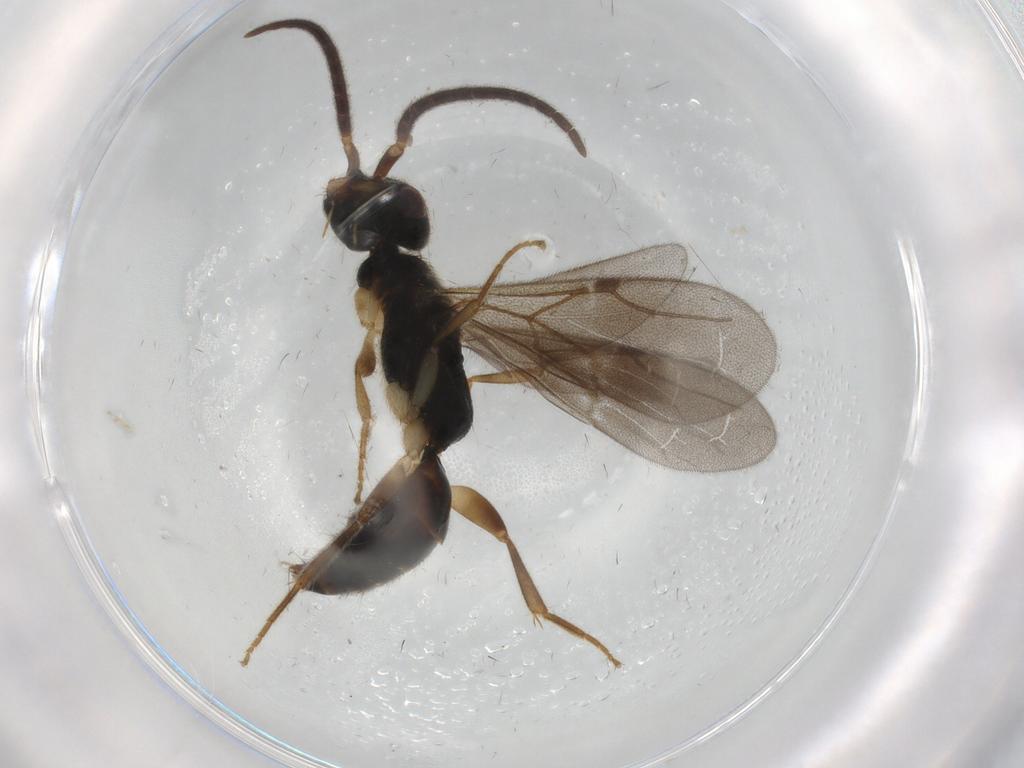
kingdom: Animalia
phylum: Arthropoda
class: Insecta
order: Hymenoptera
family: Bethylidae
